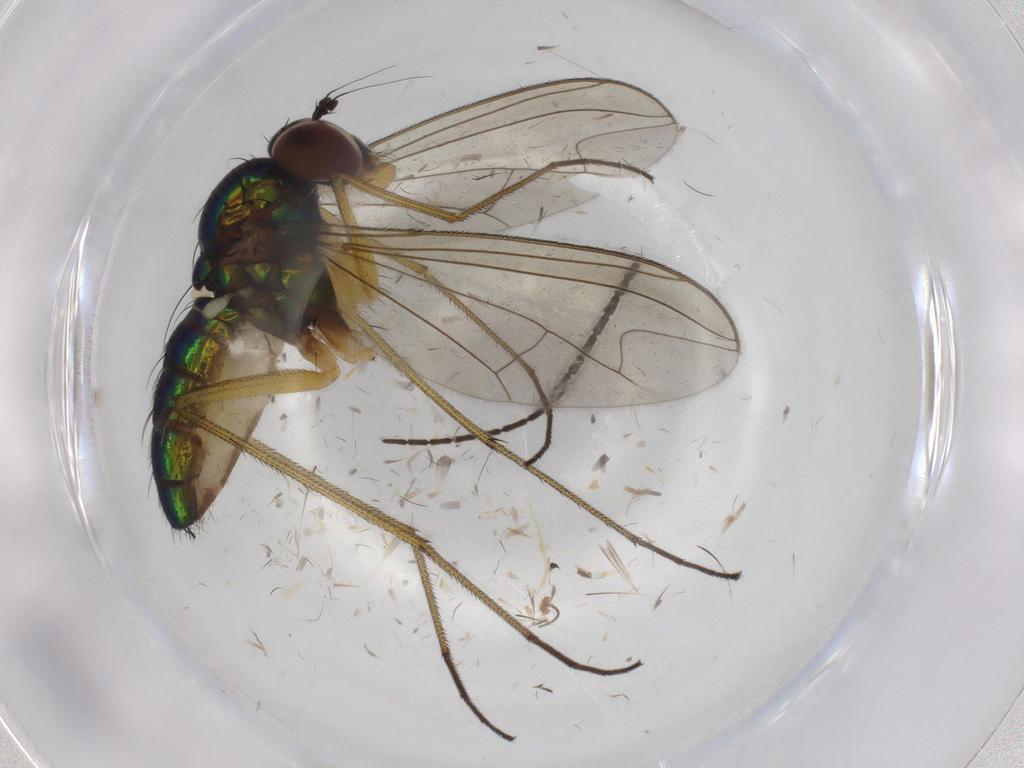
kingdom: Animalia
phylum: Arthropoda
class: Insecta
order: Diptera
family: Dolichopodidae
